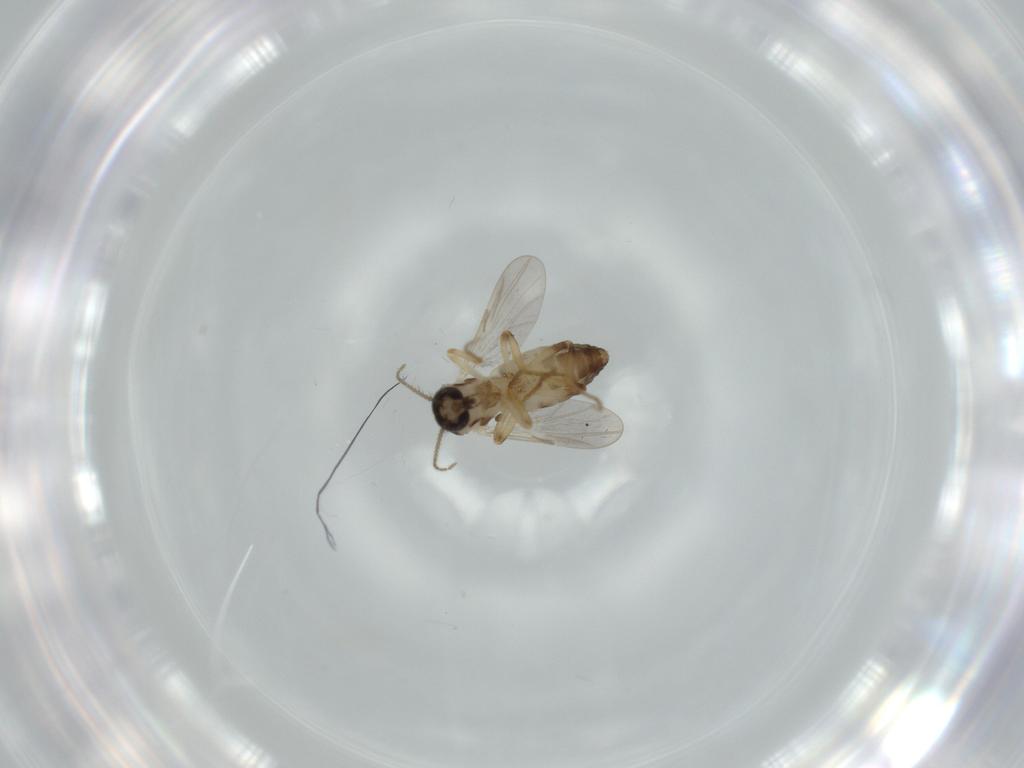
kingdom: Animalia
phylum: Arthropoda
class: Insecta
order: Diptera
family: Ceratopogonidae
